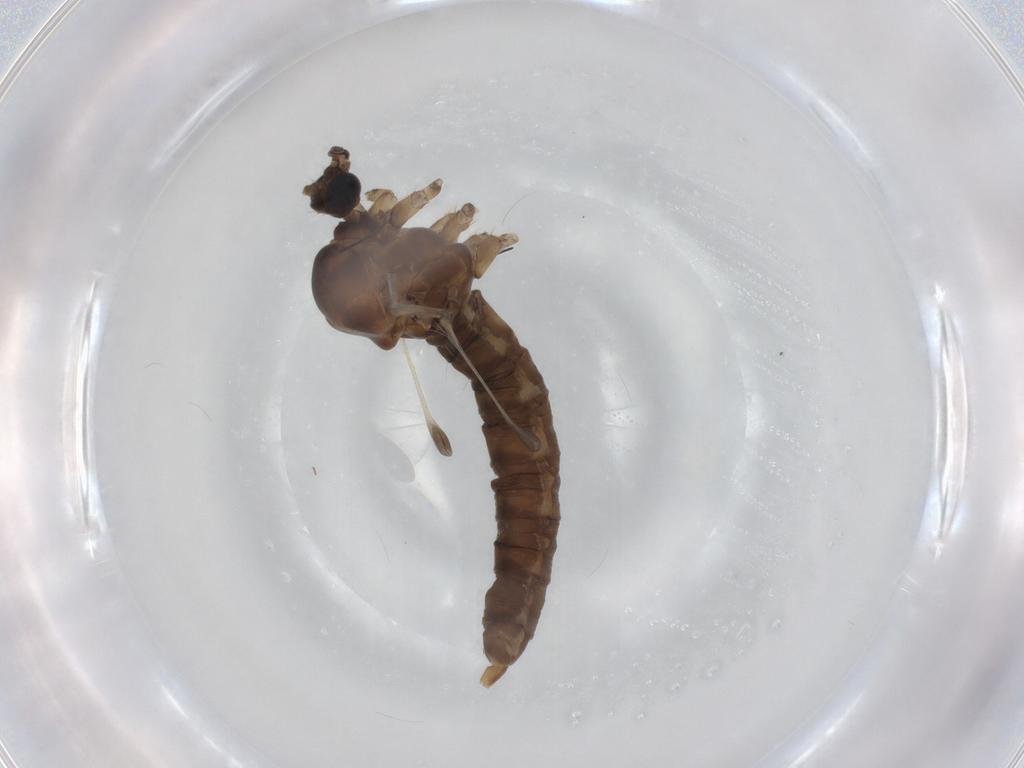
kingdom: Animalia
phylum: Arthropoda
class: Insecta
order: Diptera
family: Trichoceridae
